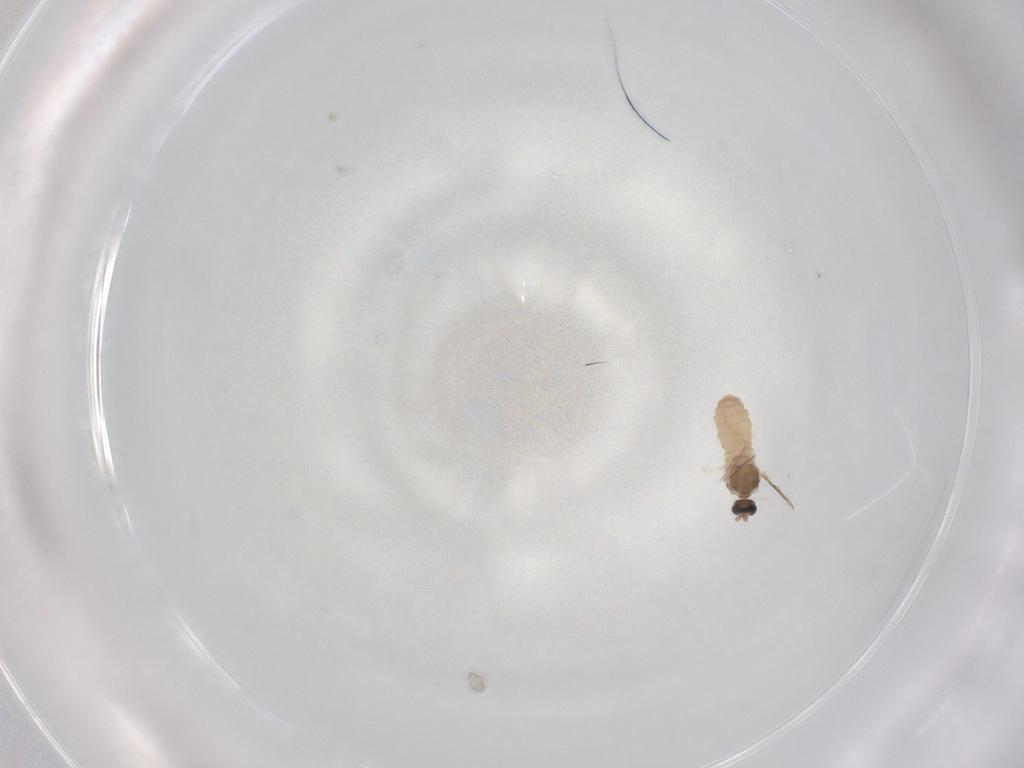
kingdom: Animalia
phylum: Arthropoda
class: Insecta
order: Diptera
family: Cecidomyiidae
